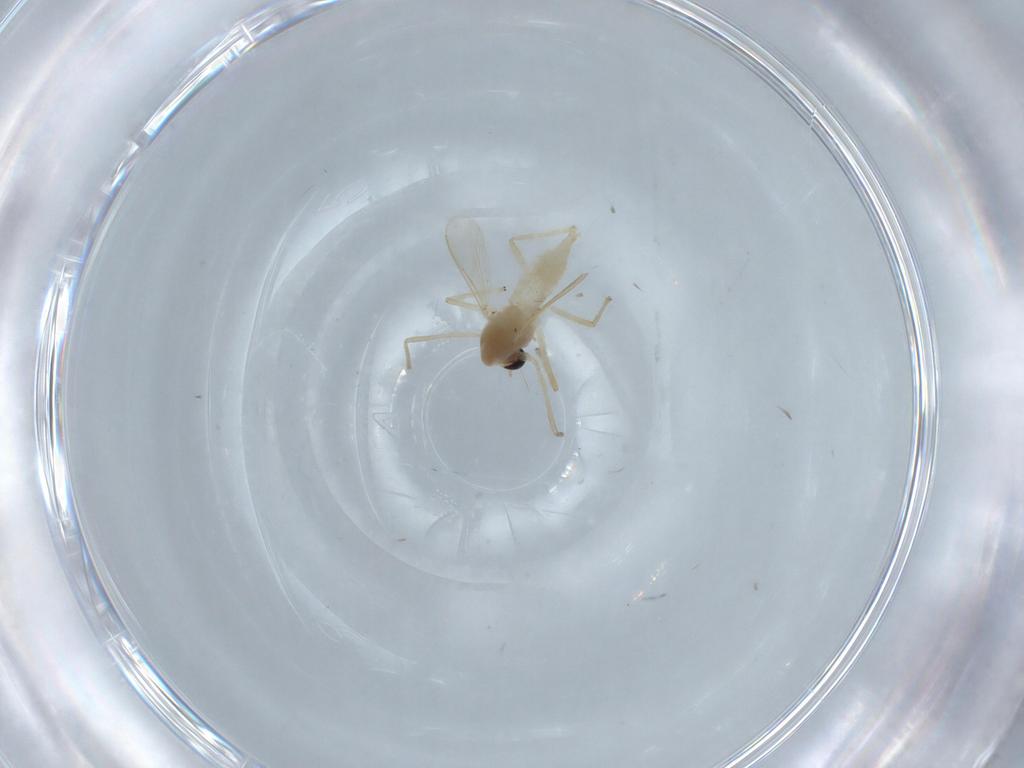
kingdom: Animalia
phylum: Arthropoda
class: Insecta
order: Diptera
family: Chironomidae
